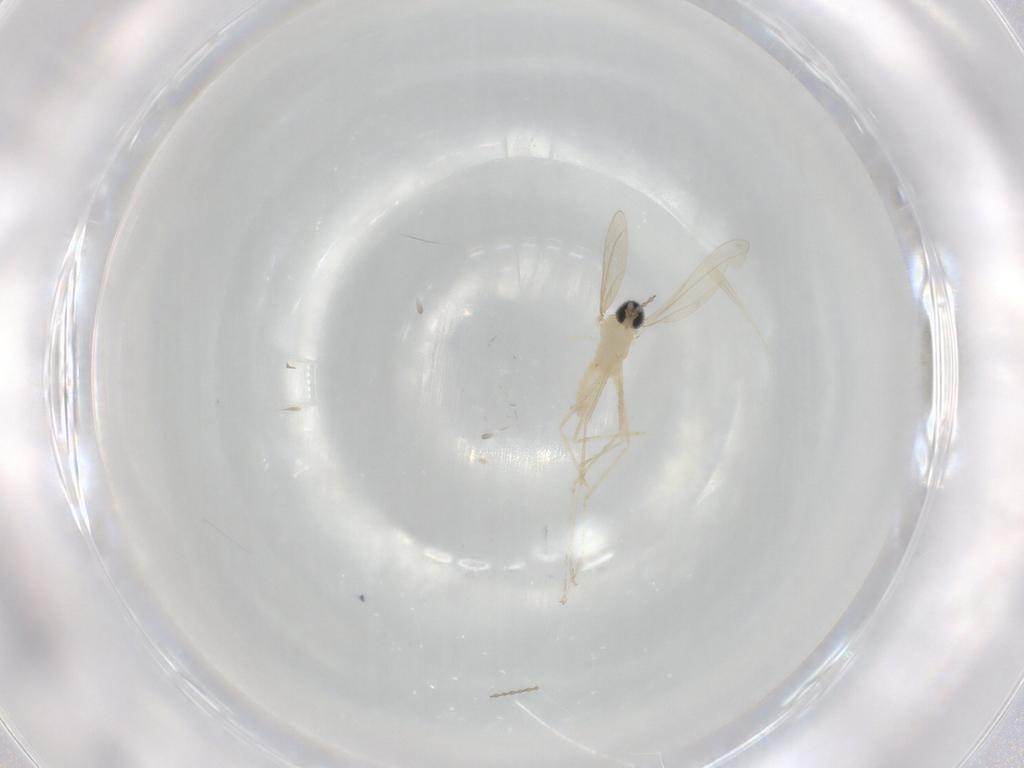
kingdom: Animalia
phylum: Arthropoda
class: Insecta
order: Diptera
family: Cecidomyiidae
